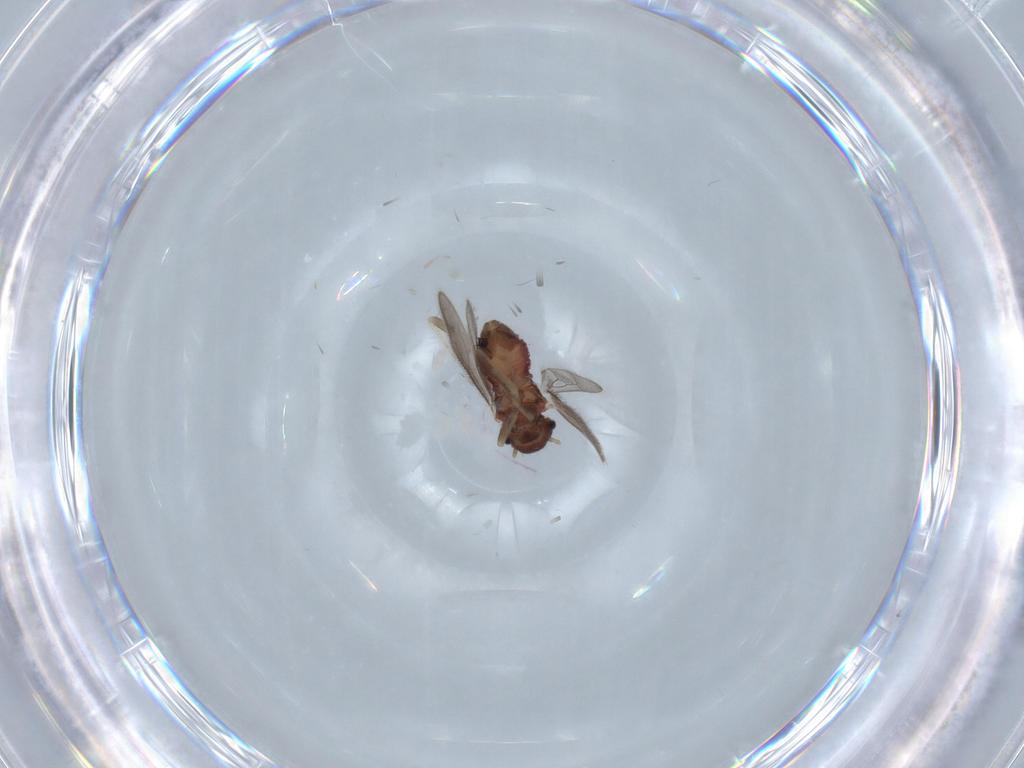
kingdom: Animalia
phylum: Arthropoda
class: Insecta
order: Psocodea
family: Archipsocidae
